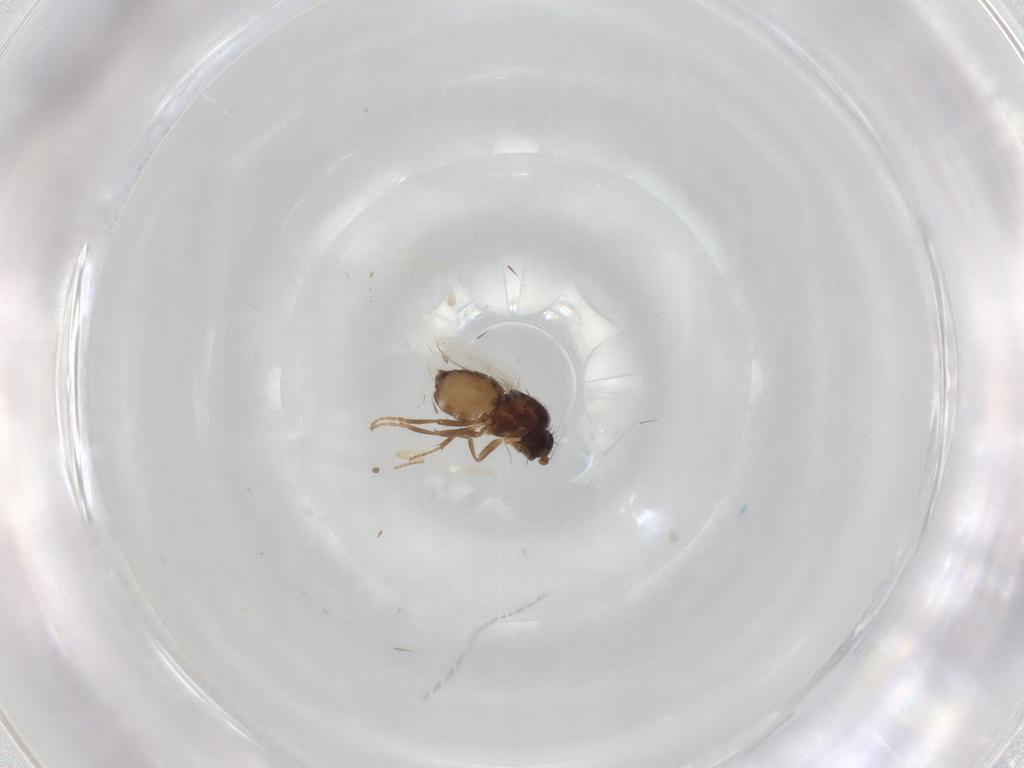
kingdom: Animalia
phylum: Arthropoda
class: Insecta
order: Diptera
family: Sphaeroceridae
